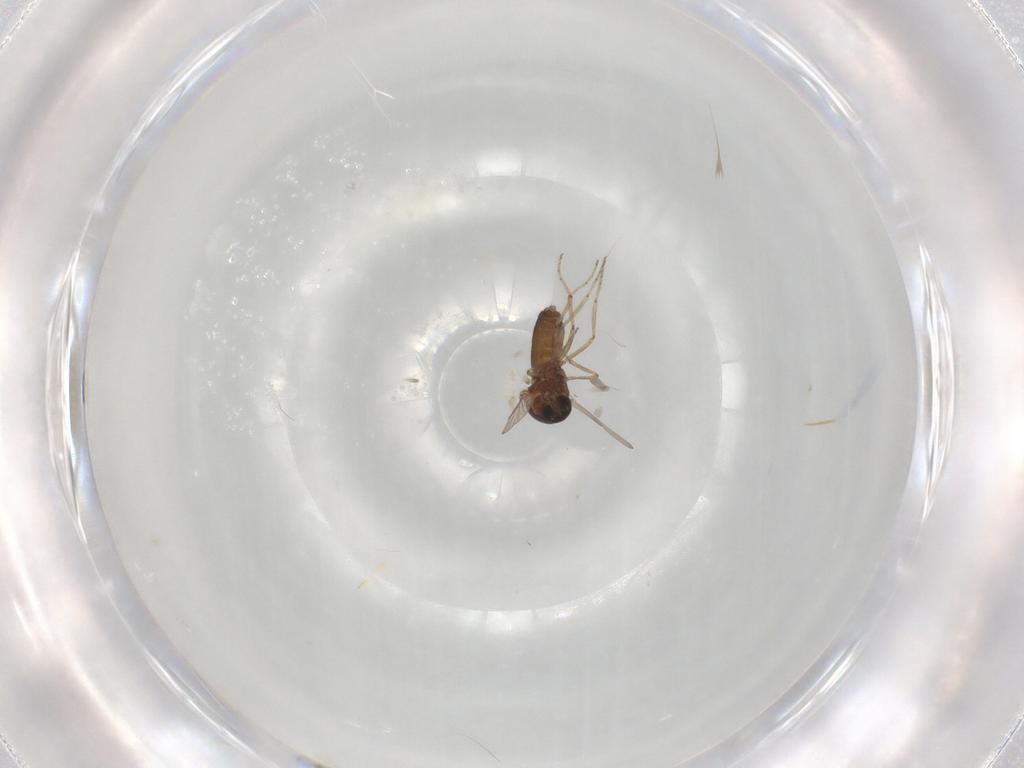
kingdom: Animalia
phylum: Arthropoda
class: Insecta
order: Diptera
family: Ceratopogonidae
